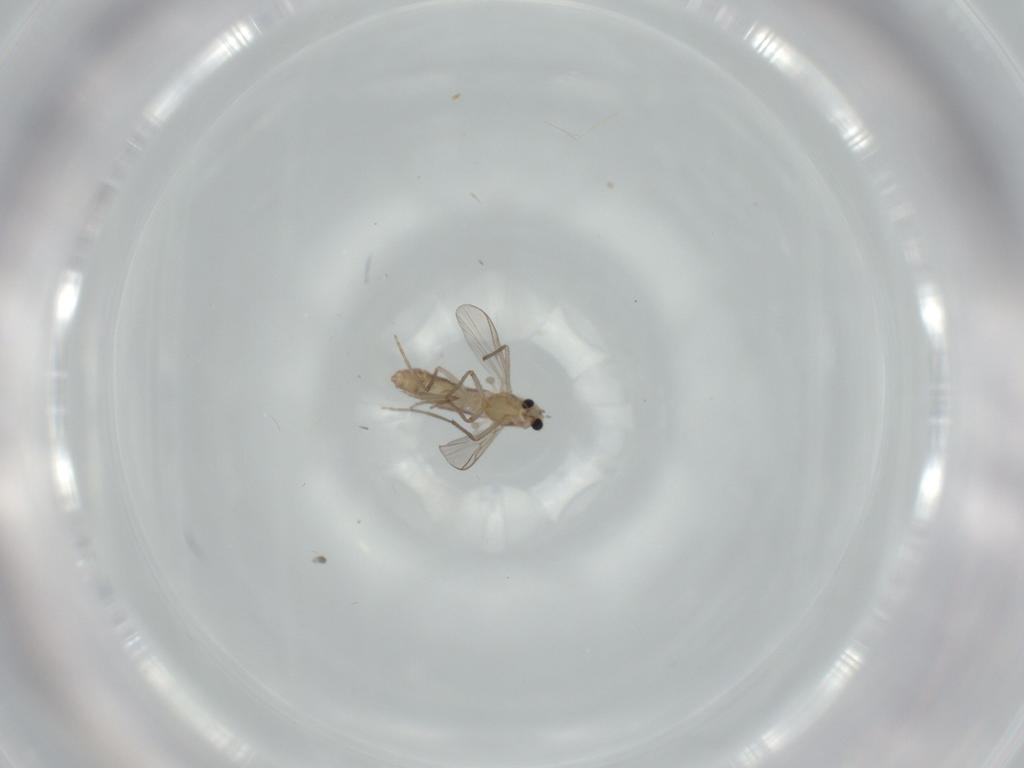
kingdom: Animalia
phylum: Arthropoda
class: Insecta
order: Diptera
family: Chironomidae
